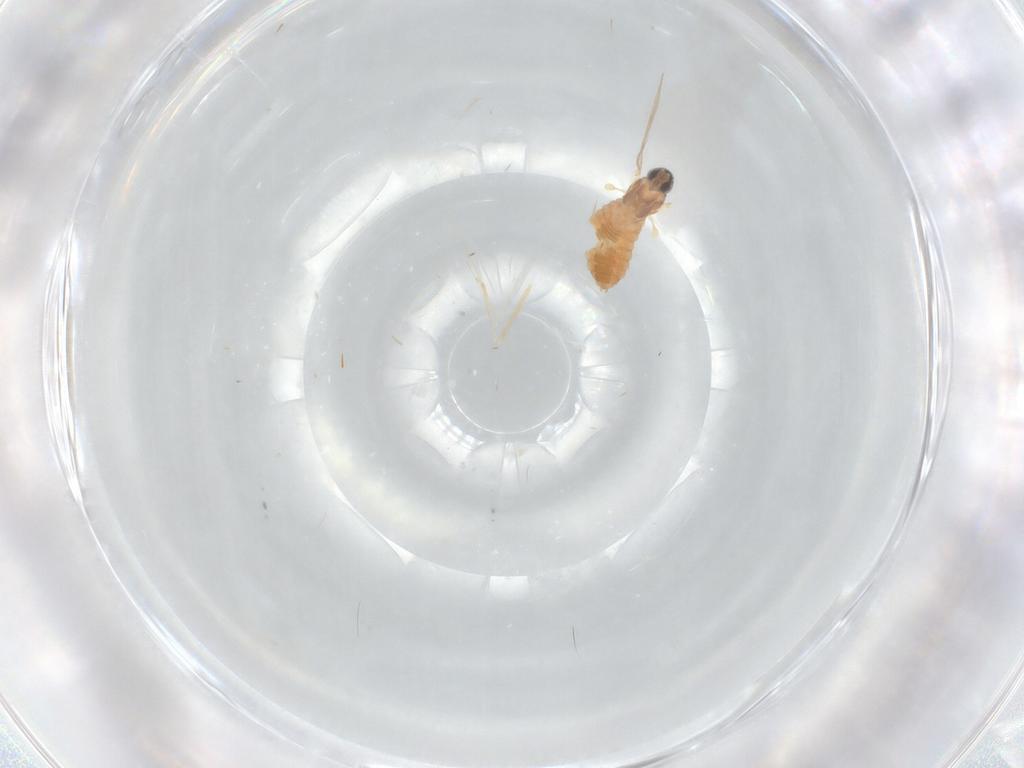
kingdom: Animalia
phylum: Arthropoda
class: Insecta
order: Diptera
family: Cecidomyiidae
